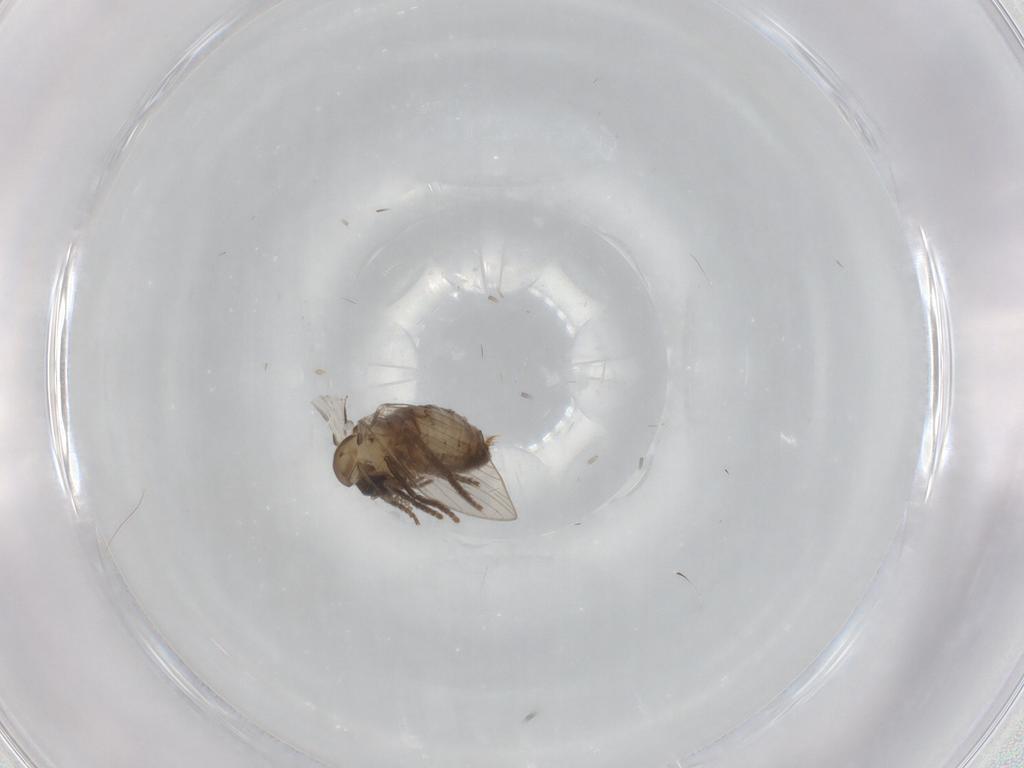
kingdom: Animalia
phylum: Arthropoda
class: Insecta
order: Diptera
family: Psychodidae
